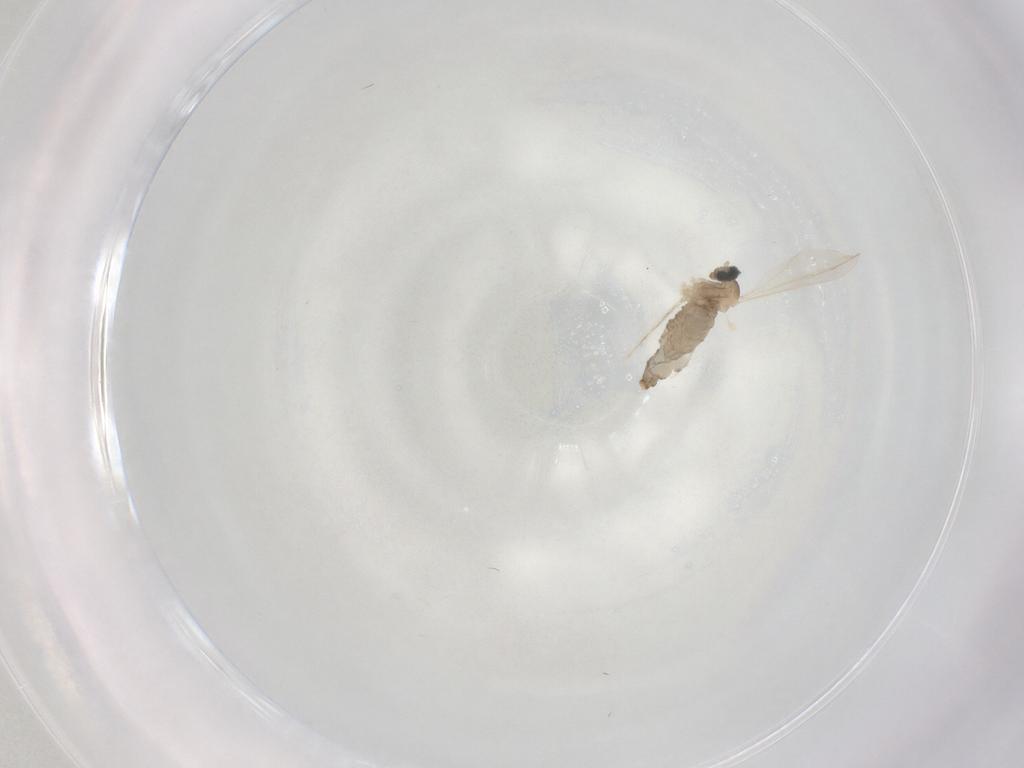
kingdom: Animalia
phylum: Arthropoda
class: Insecta
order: Diptera
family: Cecidomyiidae
